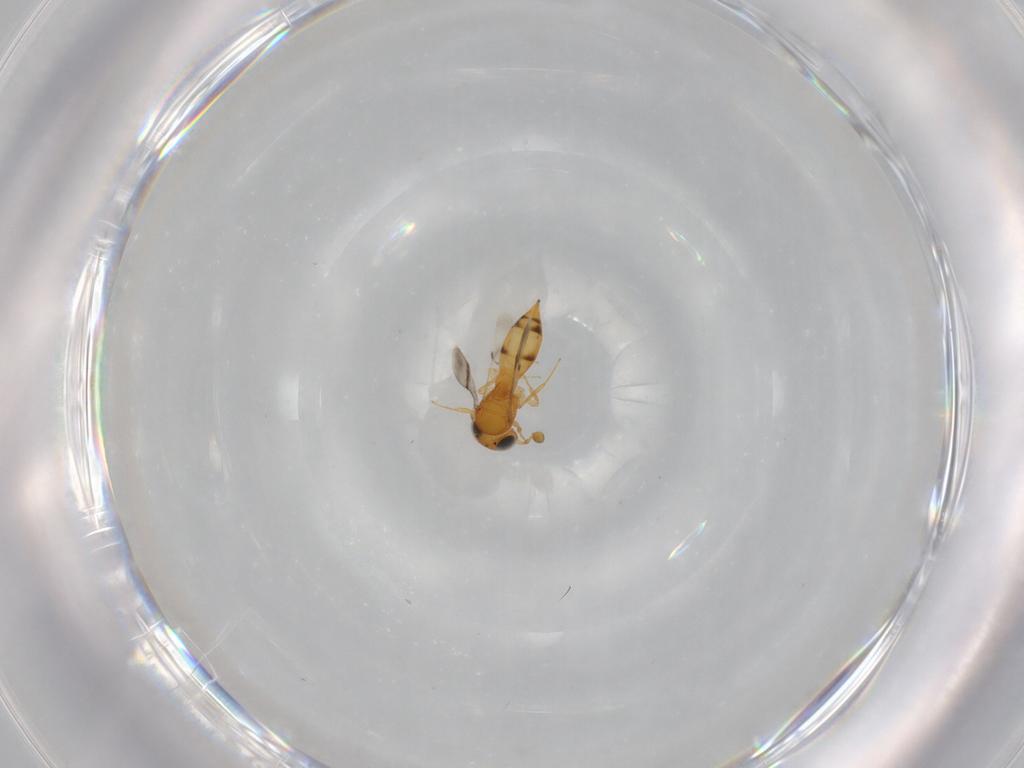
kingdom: Animalia
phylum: Arthropoda
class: Insecta
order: Hymenoptera
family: Scelionidae
